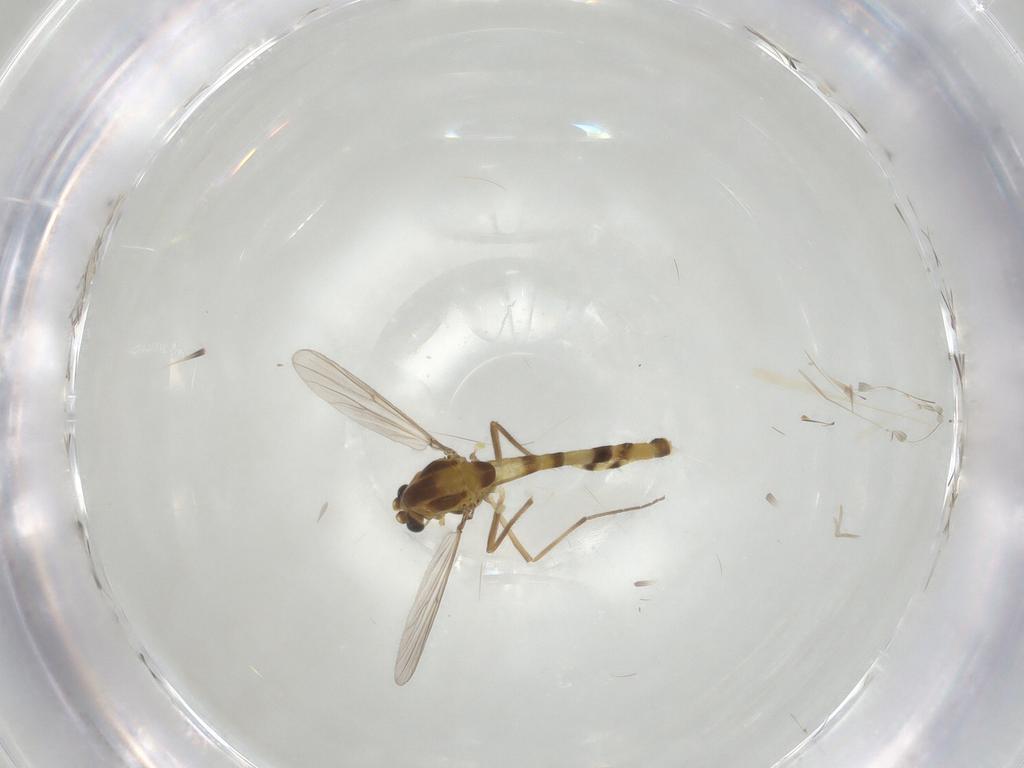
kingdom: Animalia
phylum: Arthropoda
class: Insecta
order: Diptera
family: Chironomidae
